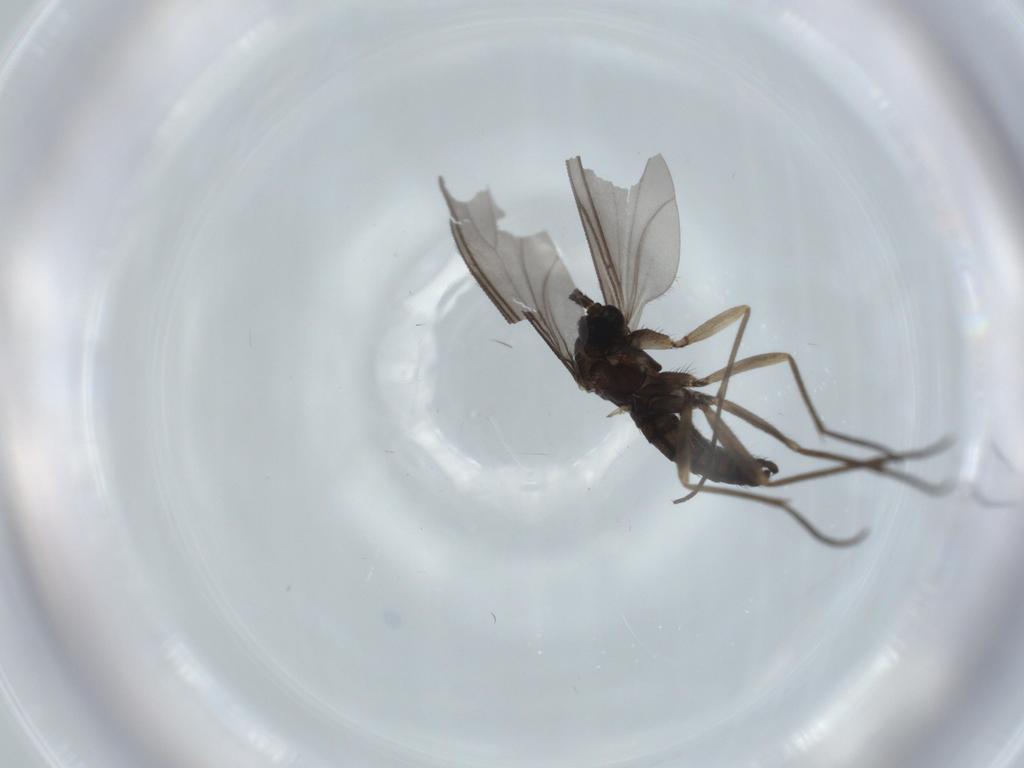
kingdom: Animalia
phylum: Arthropoda
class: Insecta
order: Diptera
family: Sciaridae
